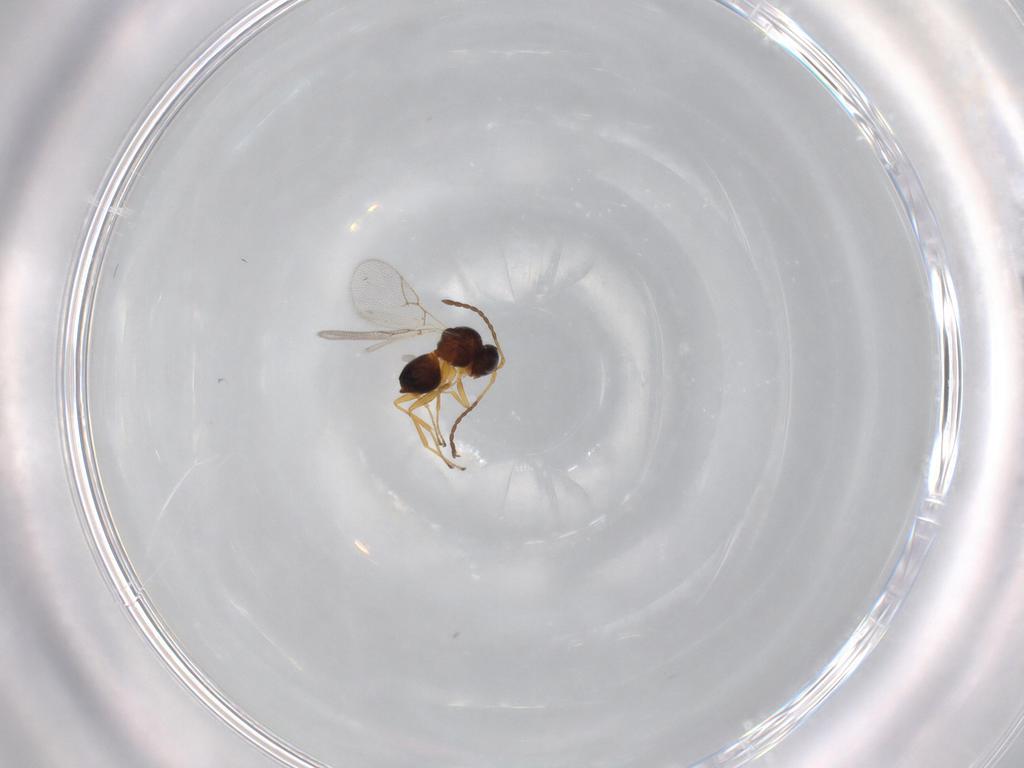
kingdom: Animalia
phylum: Arthropoda
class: Insecta
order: Hymenoptera
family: Figitidae
